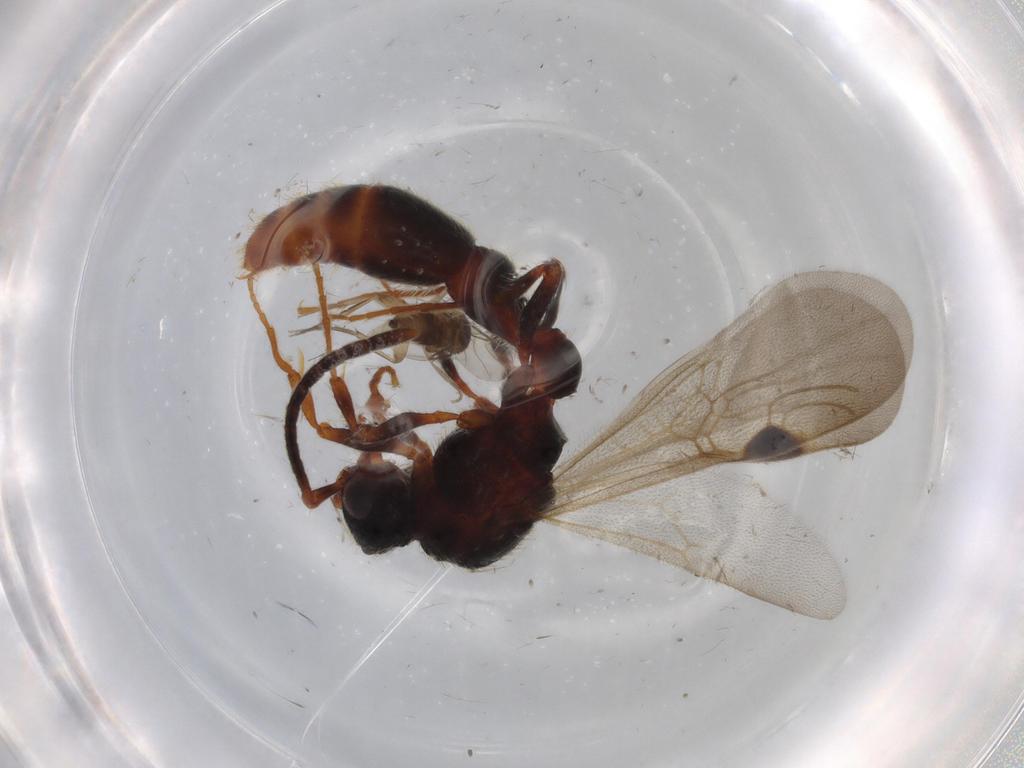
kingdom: Animalia
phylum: Arthropoda
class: Insecta
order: Diptera
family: Phoridae
